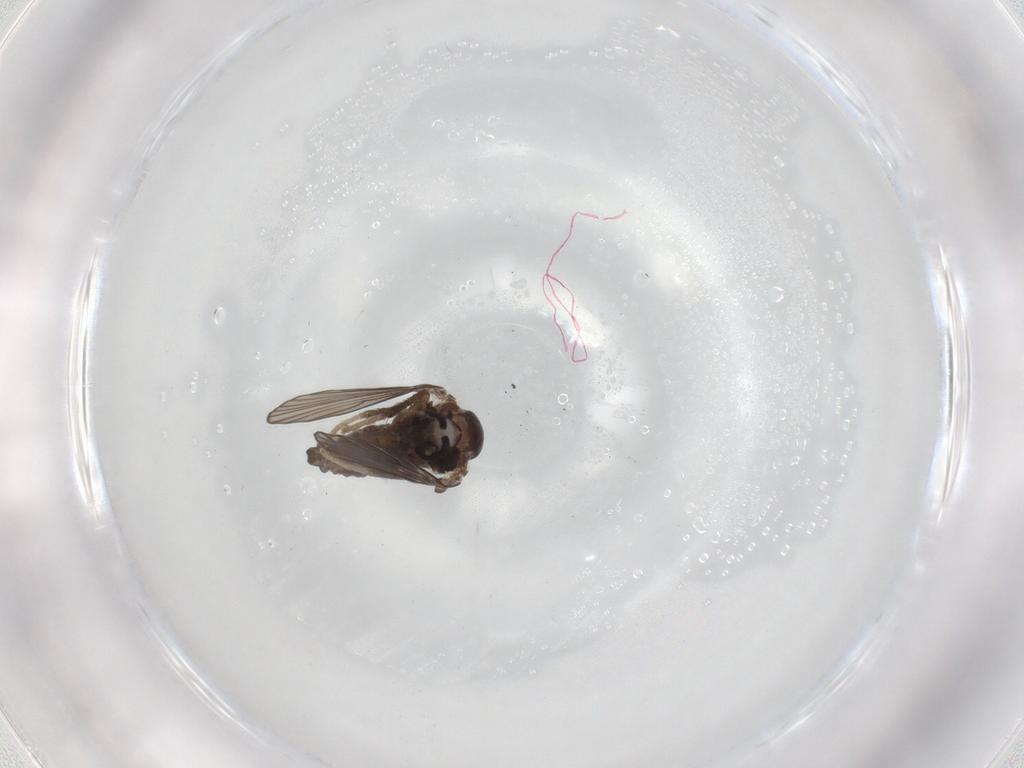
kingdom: Animalia
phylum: Arthropoda
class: Insecta
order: Diptera
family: Psychodidae
